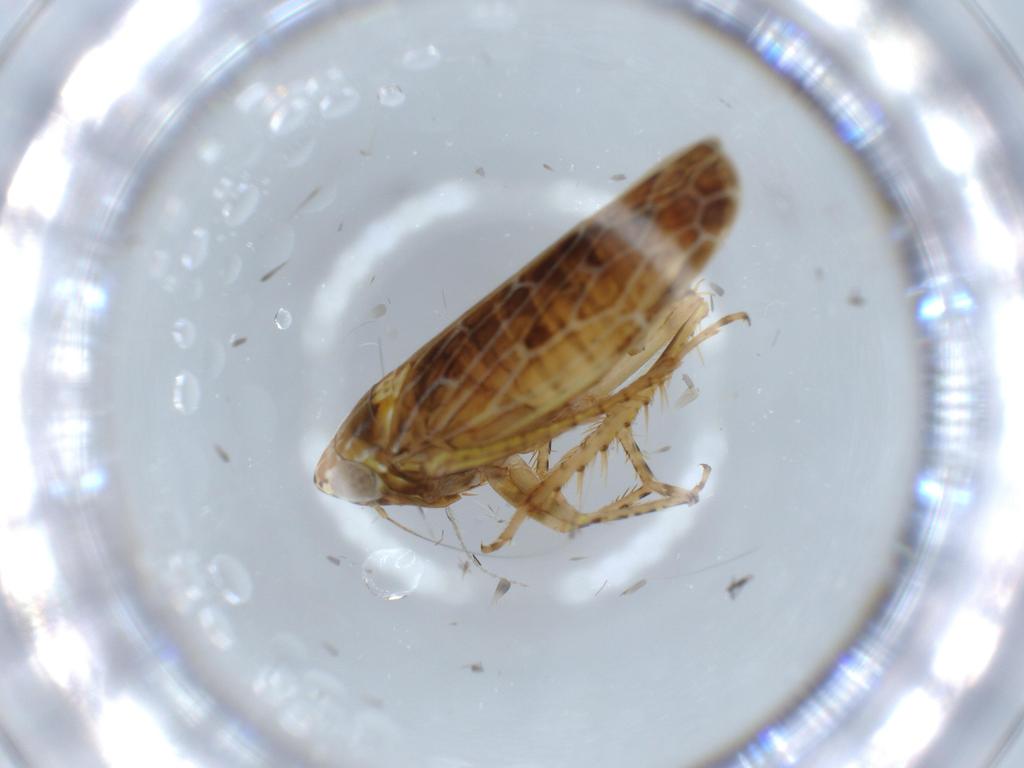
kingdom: Animalia
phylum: Arthropoda
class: Insecta
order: Hemiptera
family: Cicadellidae
